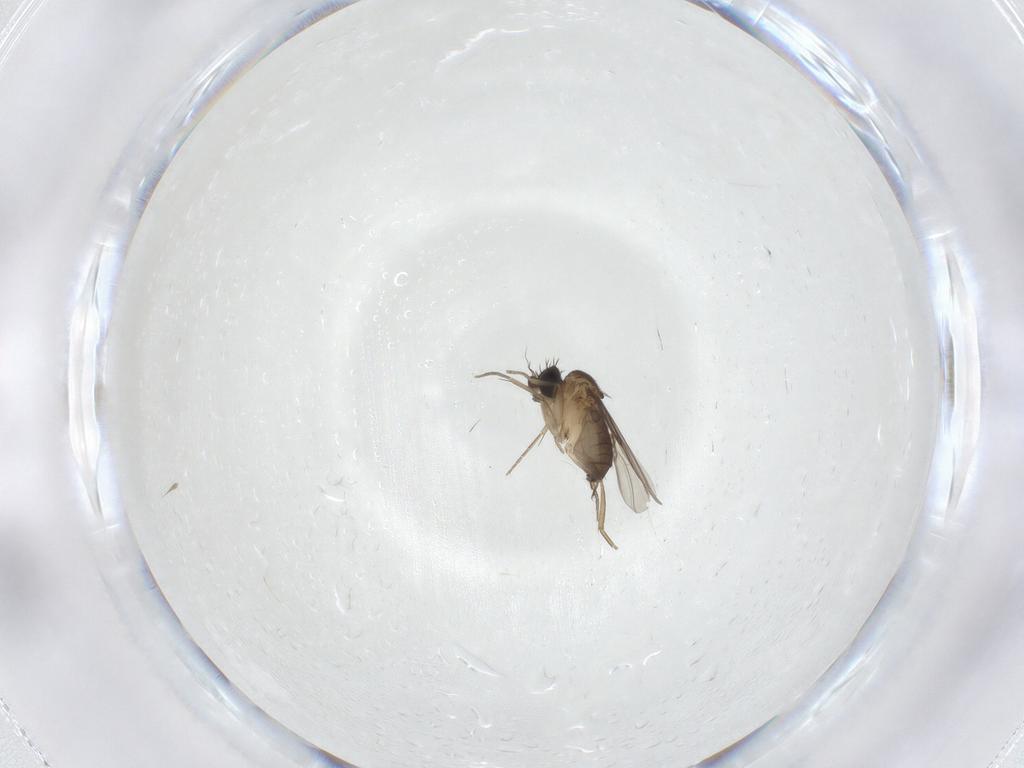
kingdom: Animalia
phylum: Arthropoda
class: Insecta
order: Diptera
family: Phoridae
